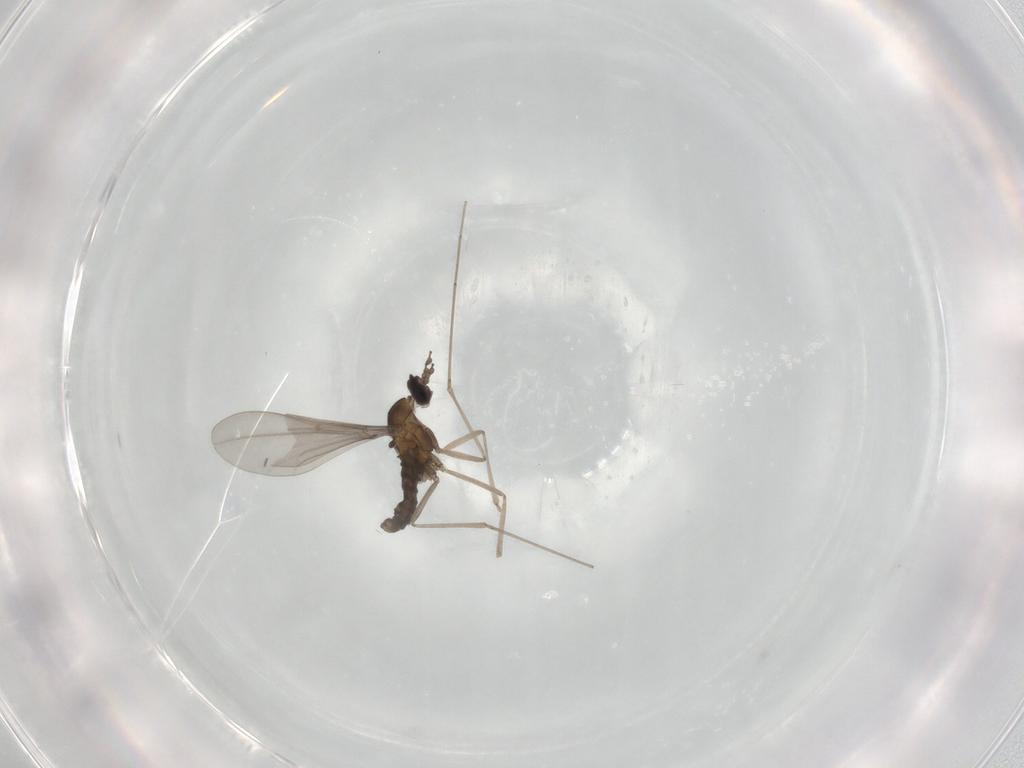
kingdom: Animalia
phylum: Arthropoda
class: Insecta
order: Diptera
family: Cecidomyiidae
